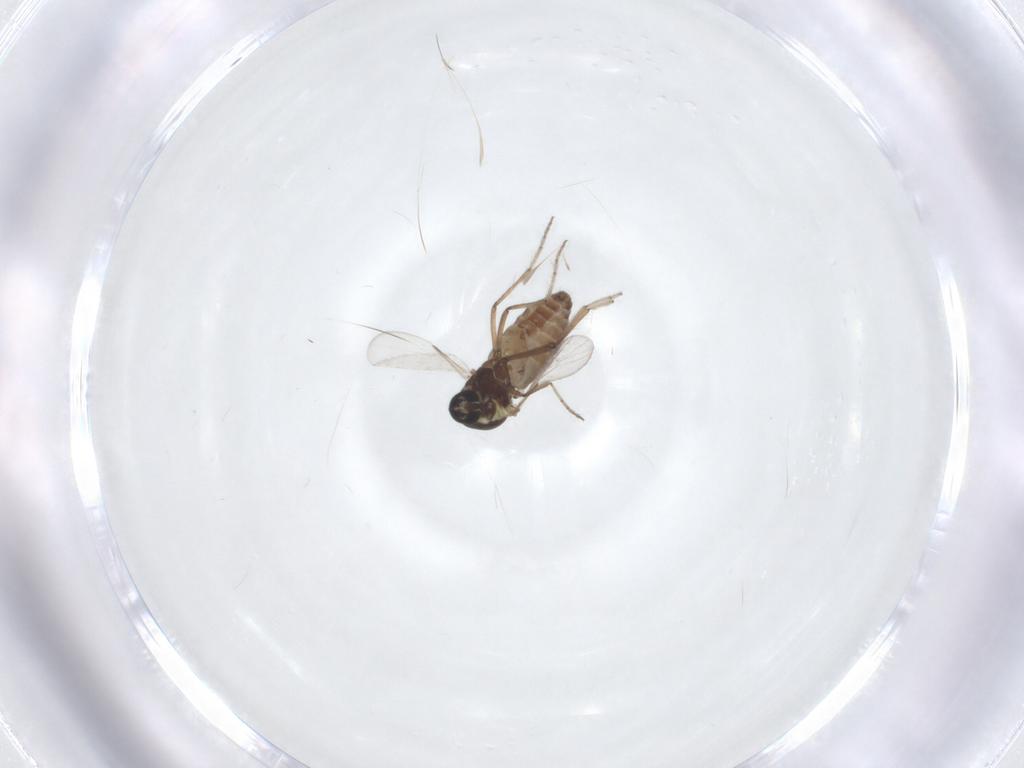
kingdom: Animalia
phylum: Arthropoda
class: Insecta
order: Diptera
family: Ceratopogonidae
